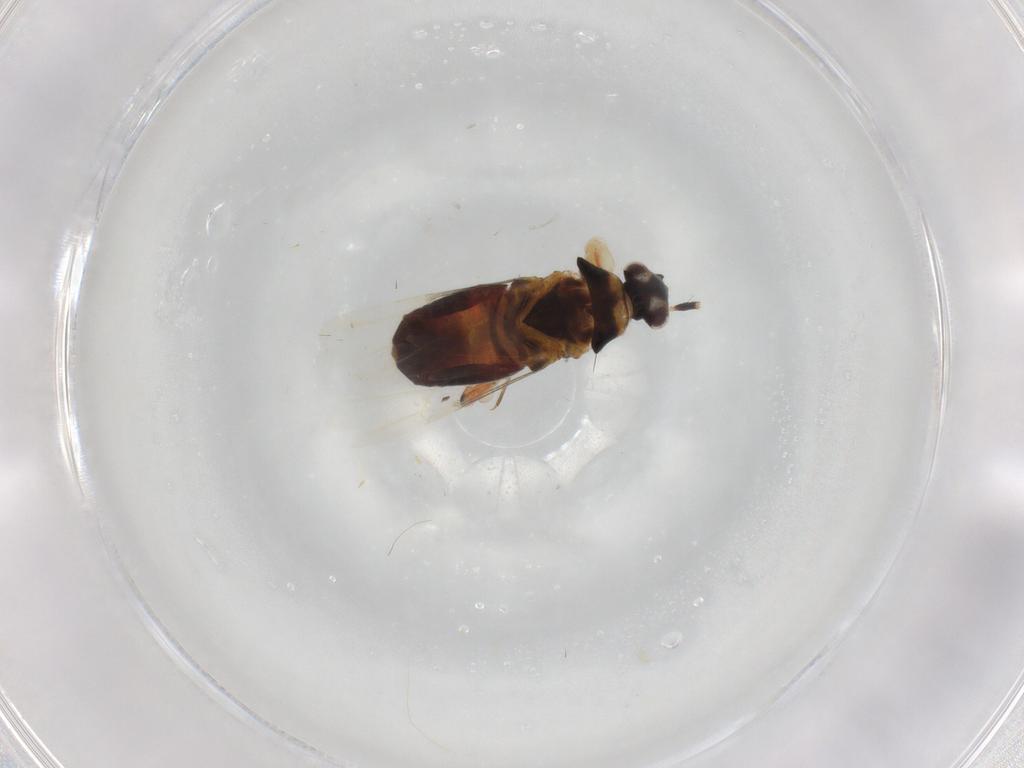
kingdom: Animalia
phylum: Arthropoda
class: Insecta
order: Hemiptera
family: Miridae
